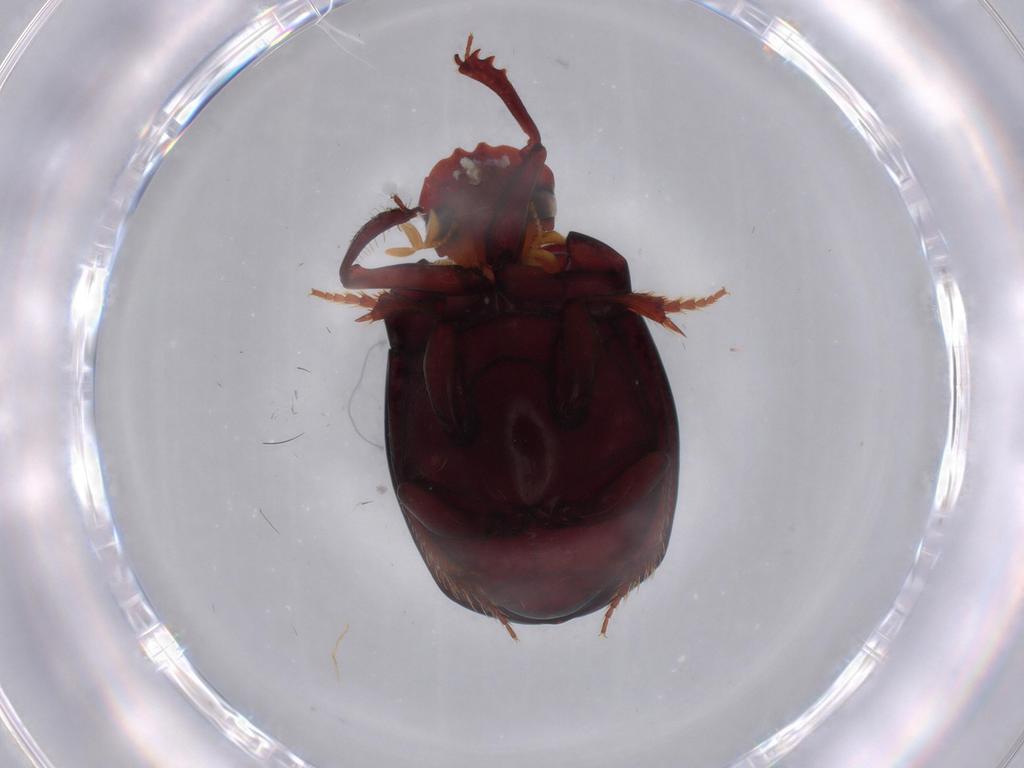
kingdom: Animalia
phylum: Arthropoda
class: Insecta
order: Coleoptera
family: Scarabaeidae
